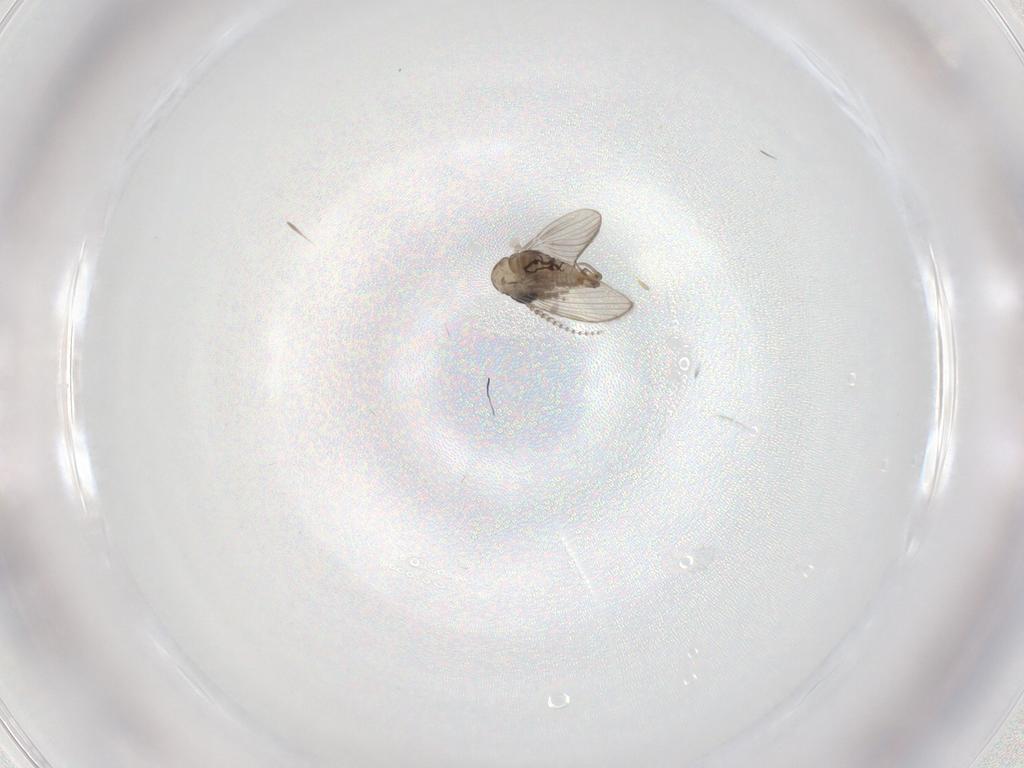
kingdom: Animalia
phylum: Arthropoda
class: Insecta
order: Diptera
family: Psychodidae
